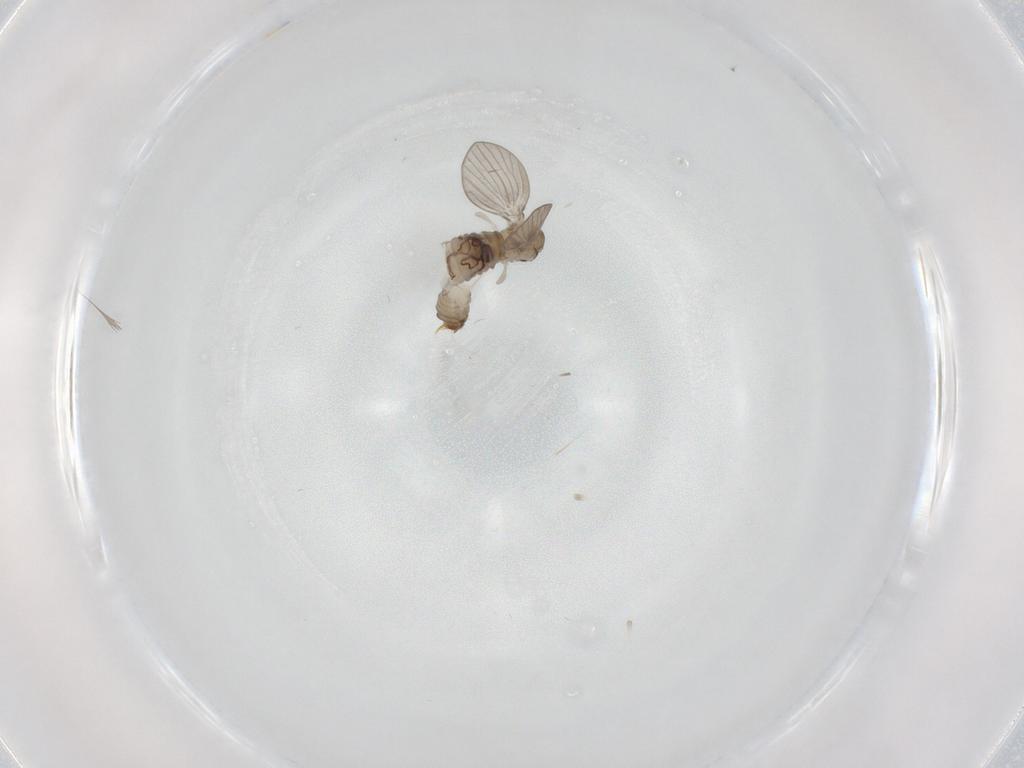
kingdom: Animalia
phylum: Arthropoda
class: Insecta
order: Diptera
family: Psychodidae
